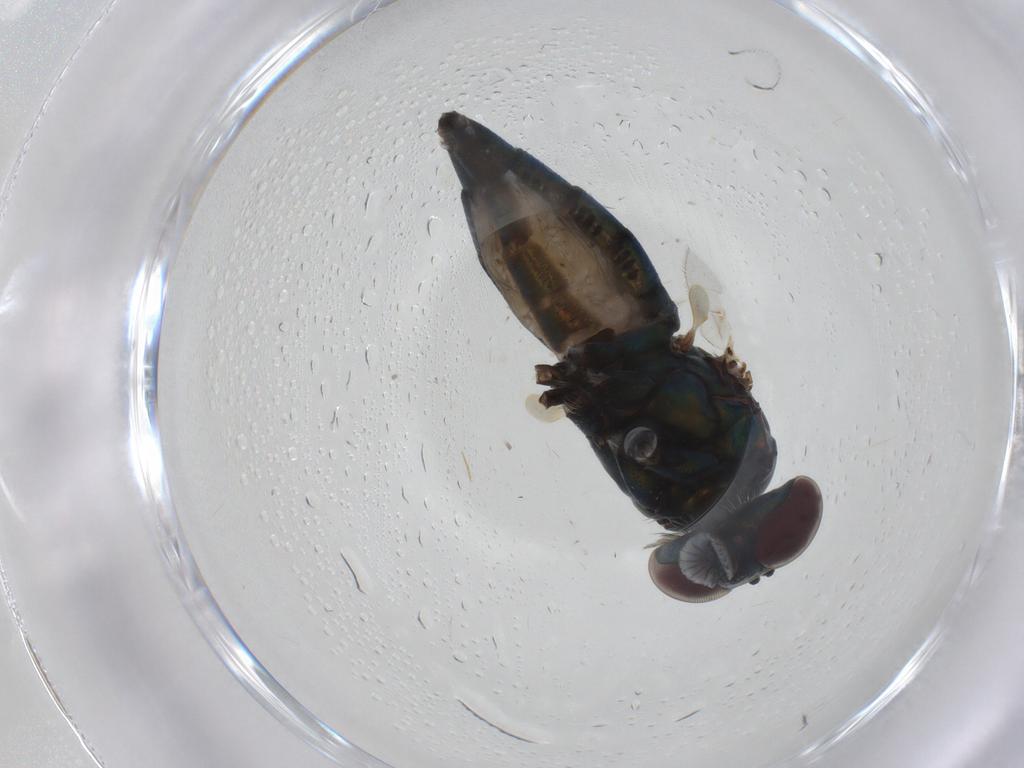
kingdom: Animalia
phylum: Arthropoda
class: Insecta
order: Diptera
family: Dolichopodidae
